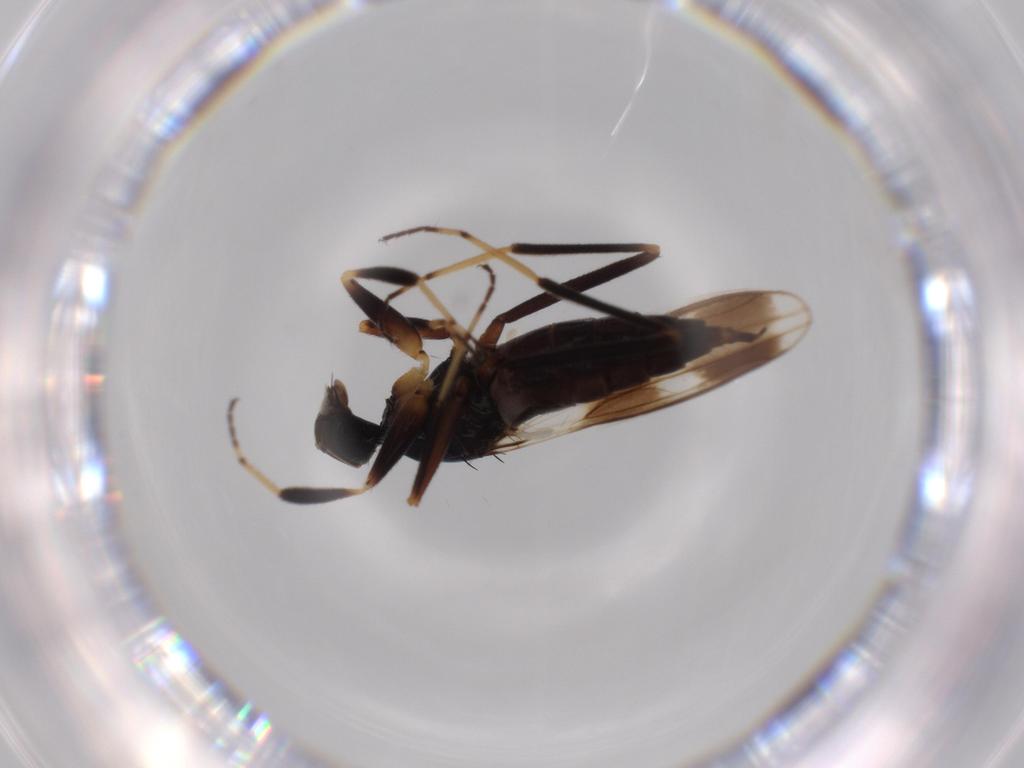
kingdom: Animalia
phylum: Arthropoda
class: Insecta
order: Diptera
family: Hybotidae
